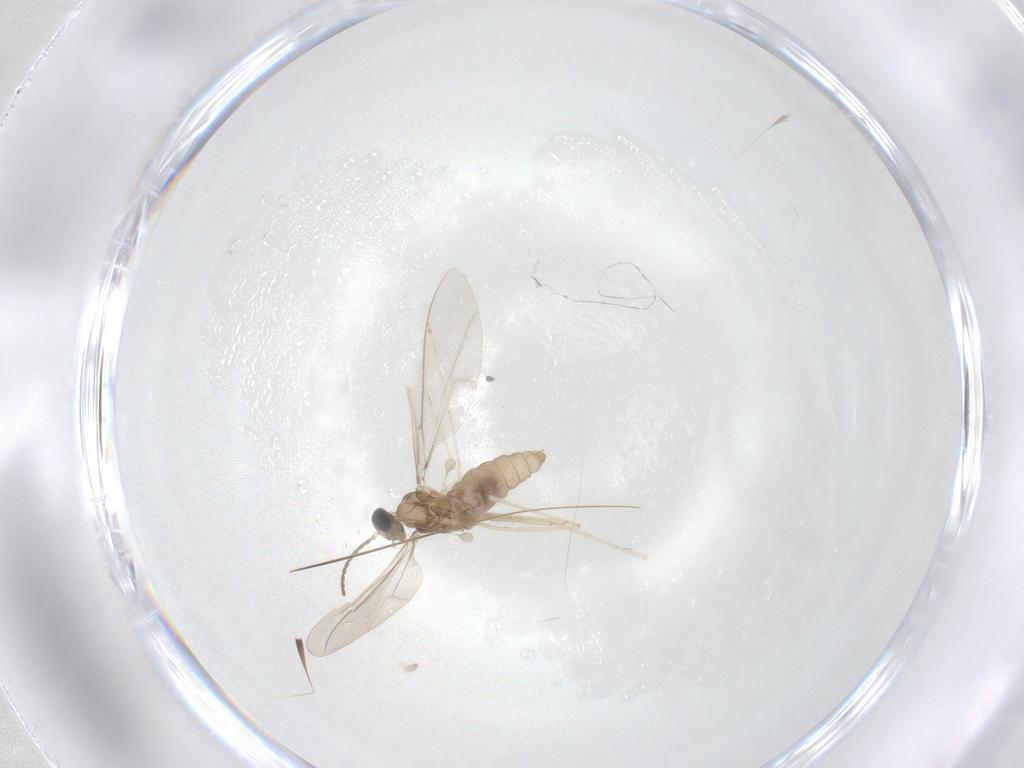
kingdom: Animalia
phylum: Arthropoda
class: Insecta
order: Diptera
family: Cecidomyiidae
